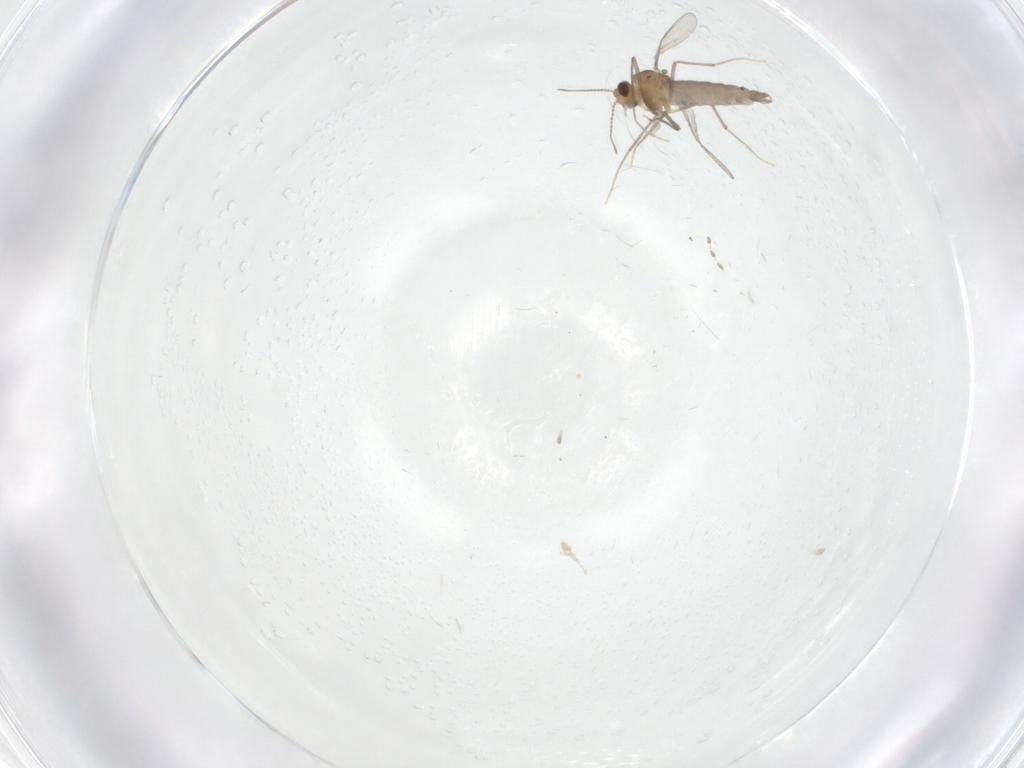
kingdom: Animalia
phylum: Arthropoda
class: Insecta
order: Diptera
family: Chironomidae
